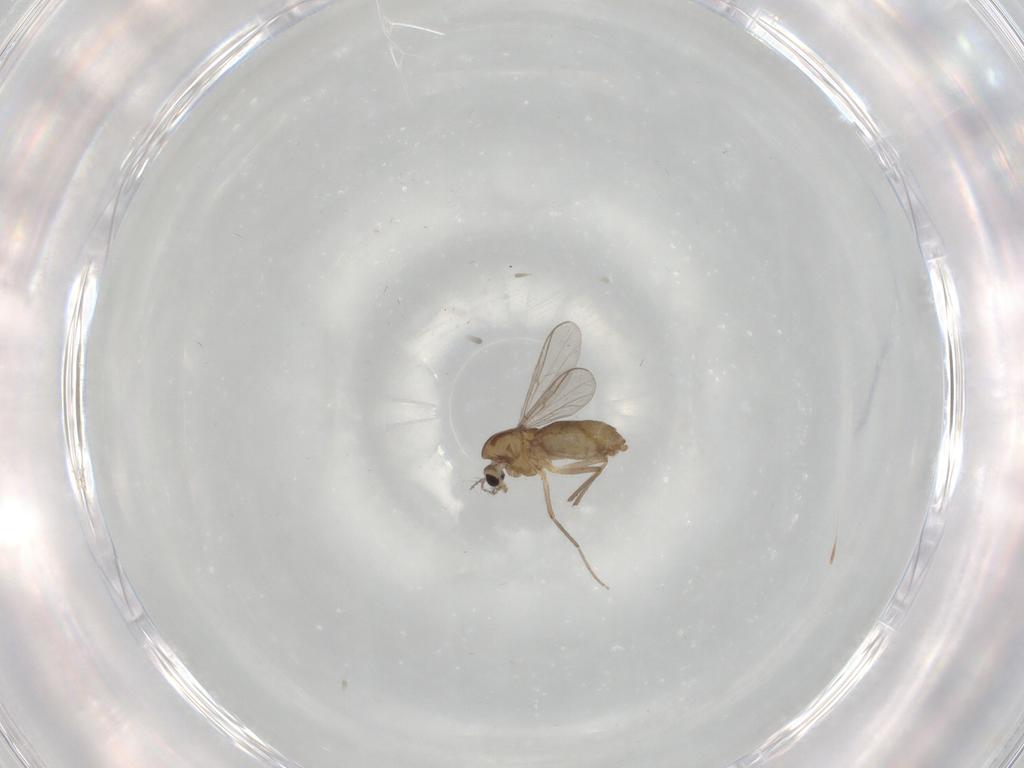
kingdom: Animalia
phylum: Arthropoda
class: Insecta
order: Diptera
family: Chironomidae
